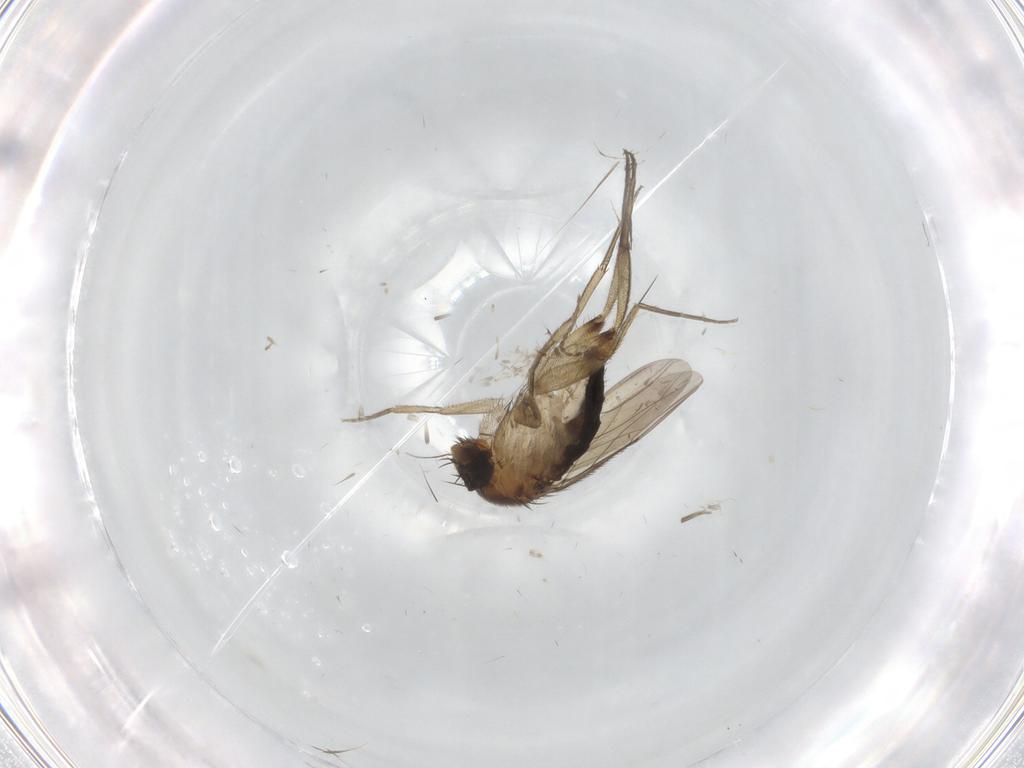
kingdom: Animalia
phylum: Arthropoda
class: Insecta
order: Diptera
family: Phoridae
